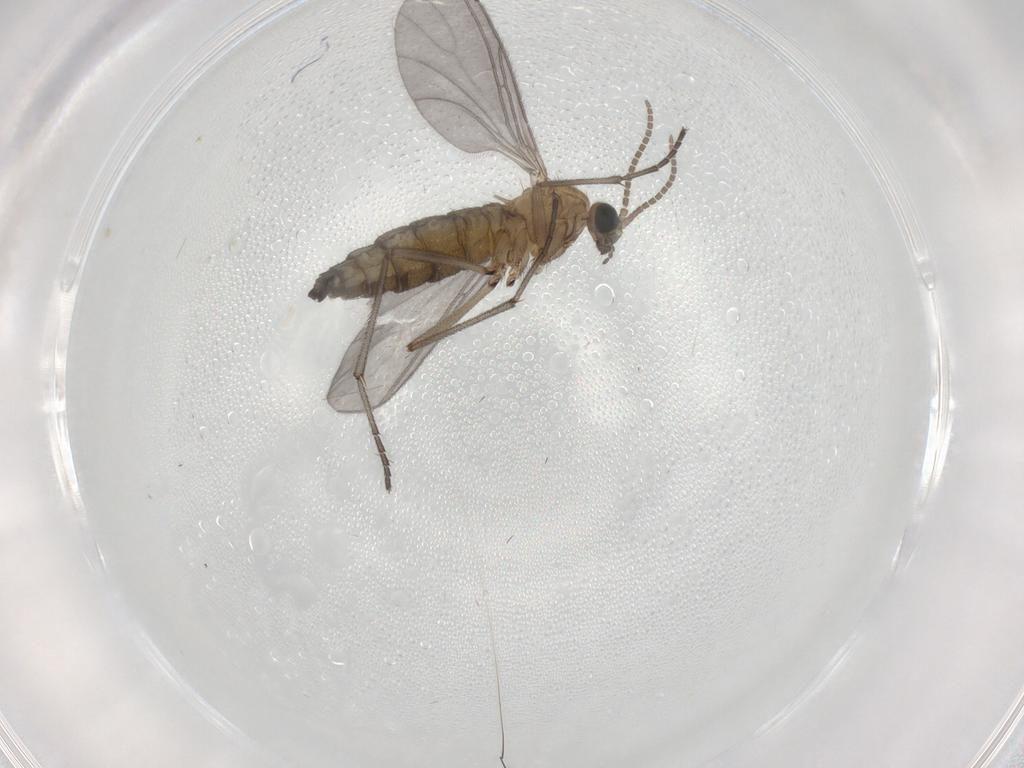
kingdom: Animalia
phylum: Arthropoda
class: Insecta
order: Diptera
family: Sciaridae
